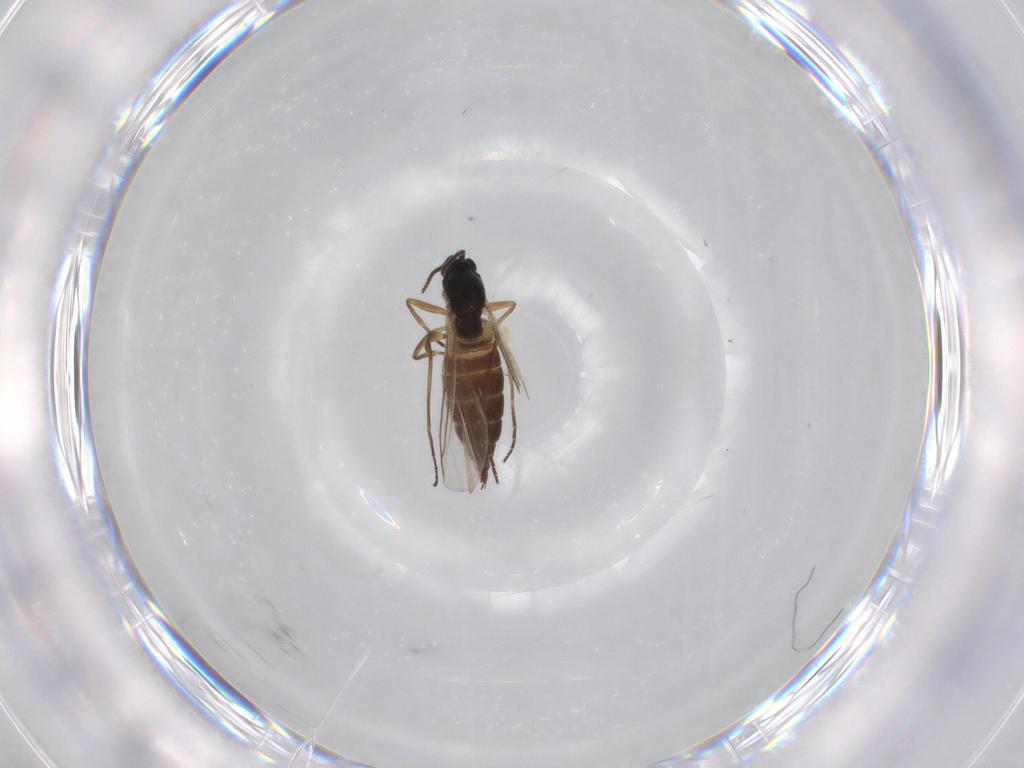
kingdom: Animalia
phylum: Arthropoda
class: Insecta
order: Diptera
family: Sciaridae
